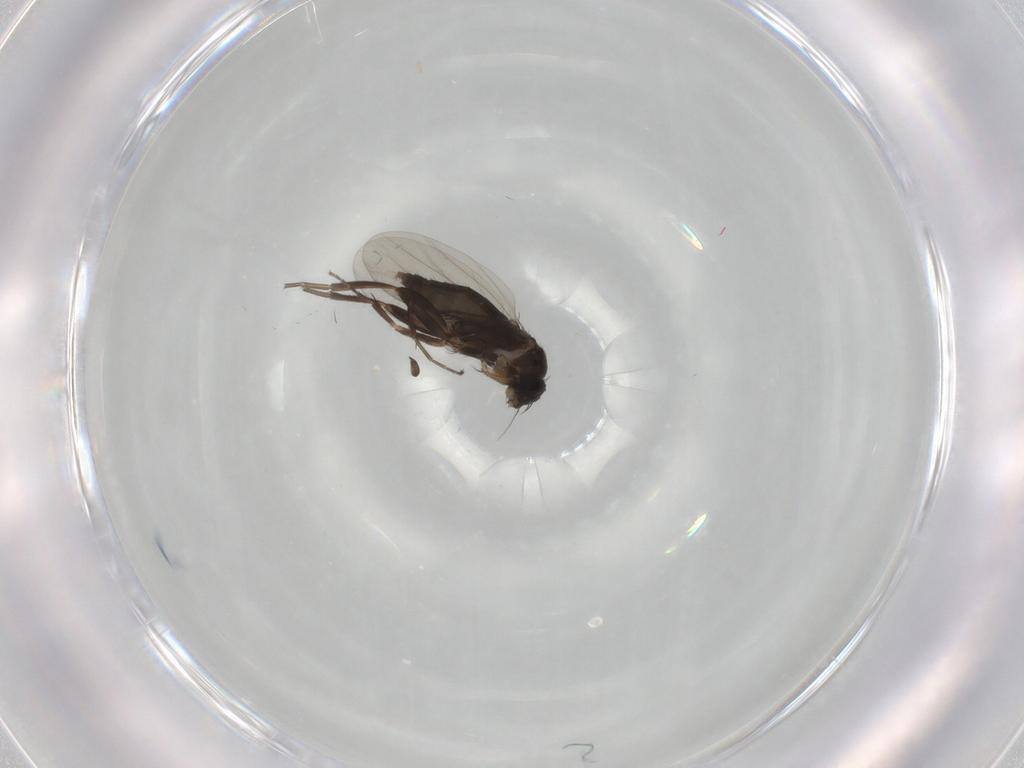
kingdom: Animalia
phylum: Arthropoda
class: Insecta
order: Diptera
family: Phoridae
